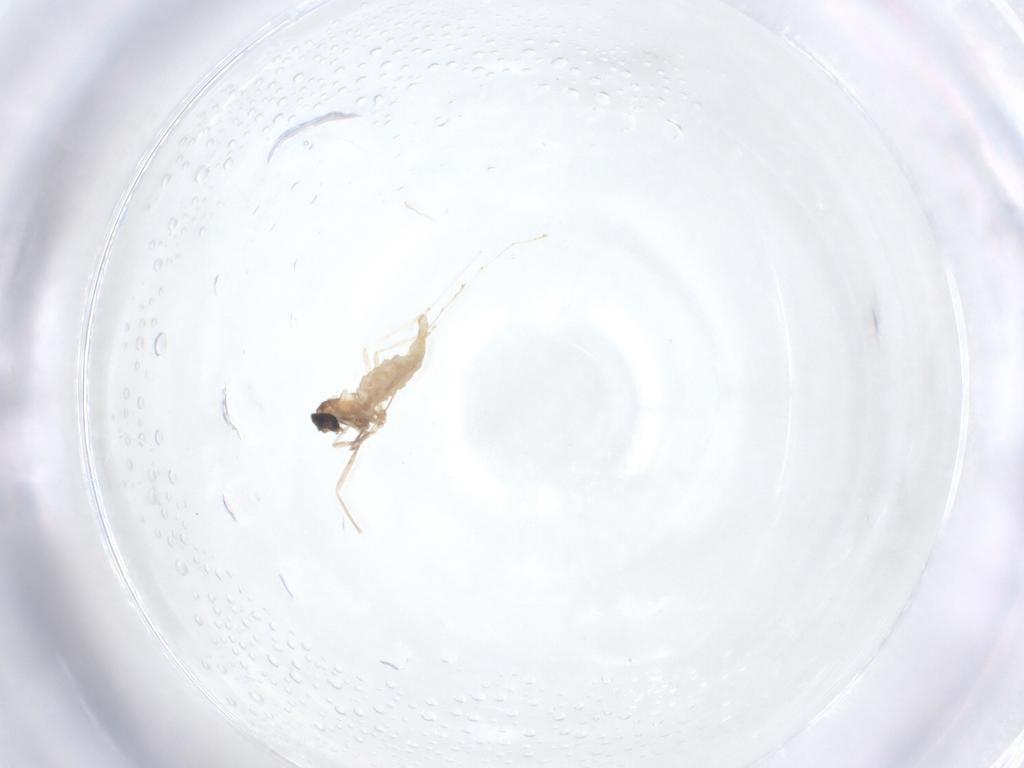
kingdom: Animalia
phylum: Arthropoda
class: Insecta
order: Diptera
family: Cecidomyiidae
